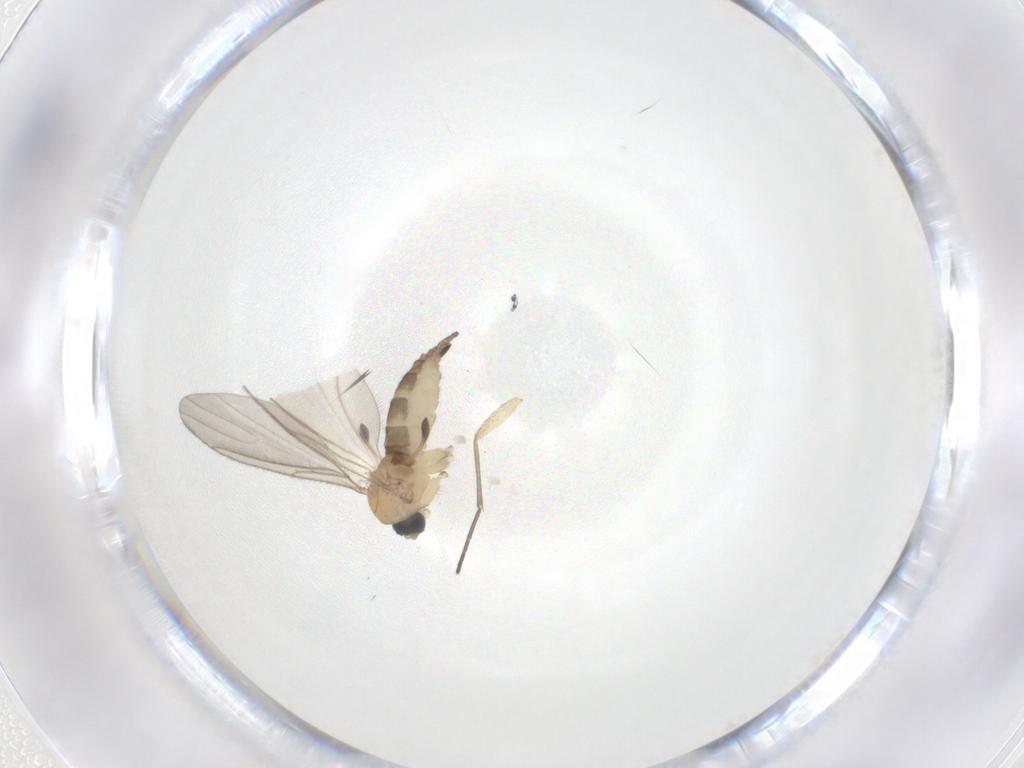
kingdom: Animalia
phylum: Arthropoda
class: Insecta
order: Diptera
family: Sciaridae
